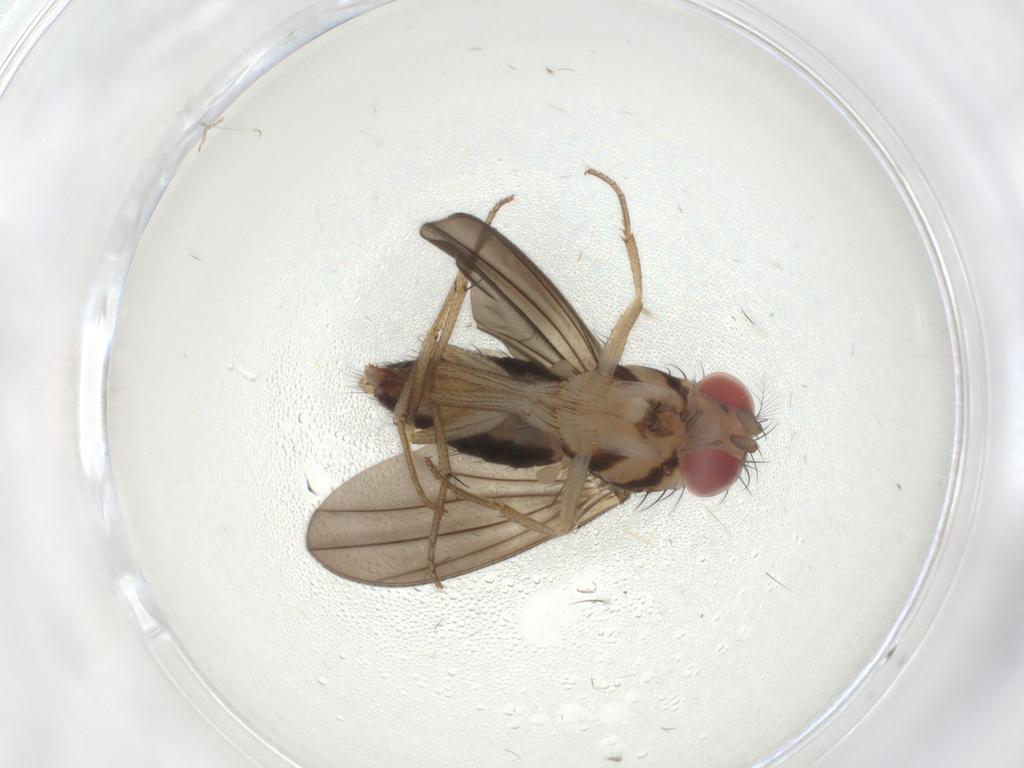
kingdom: Animalia
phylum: Arthropoda
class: Insecta
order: Diptera
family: Drosophilidae
